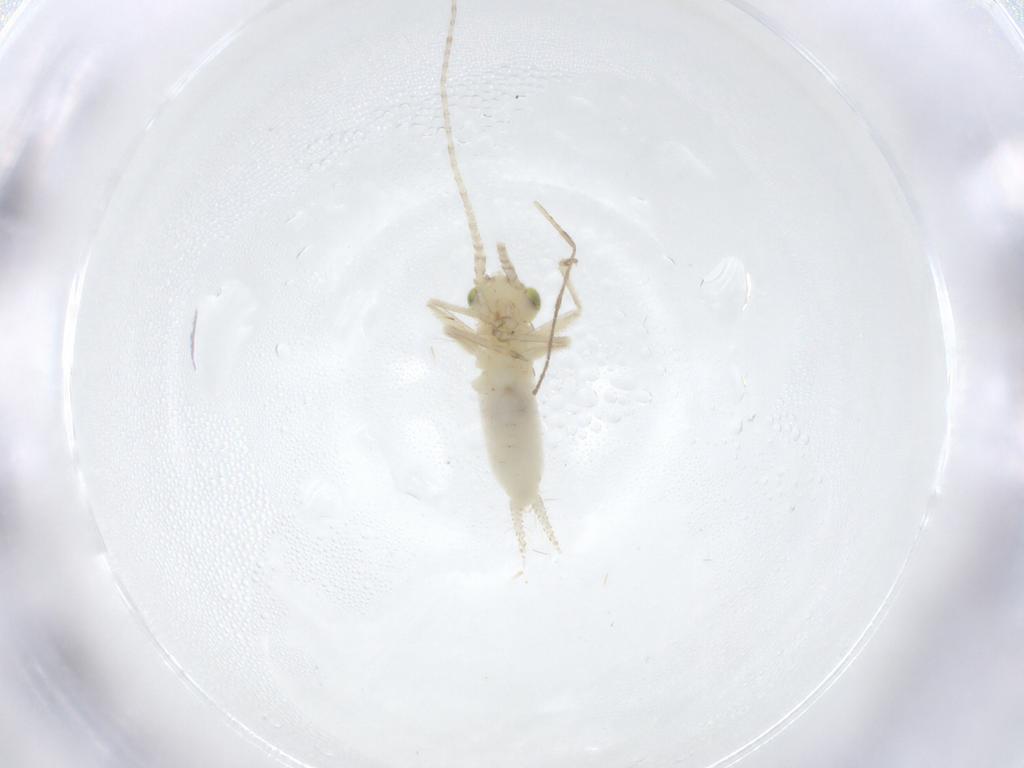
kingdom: Animalia
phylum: Arthropoda
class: Insecta
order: Orthoptera
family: Trigonidiidae
